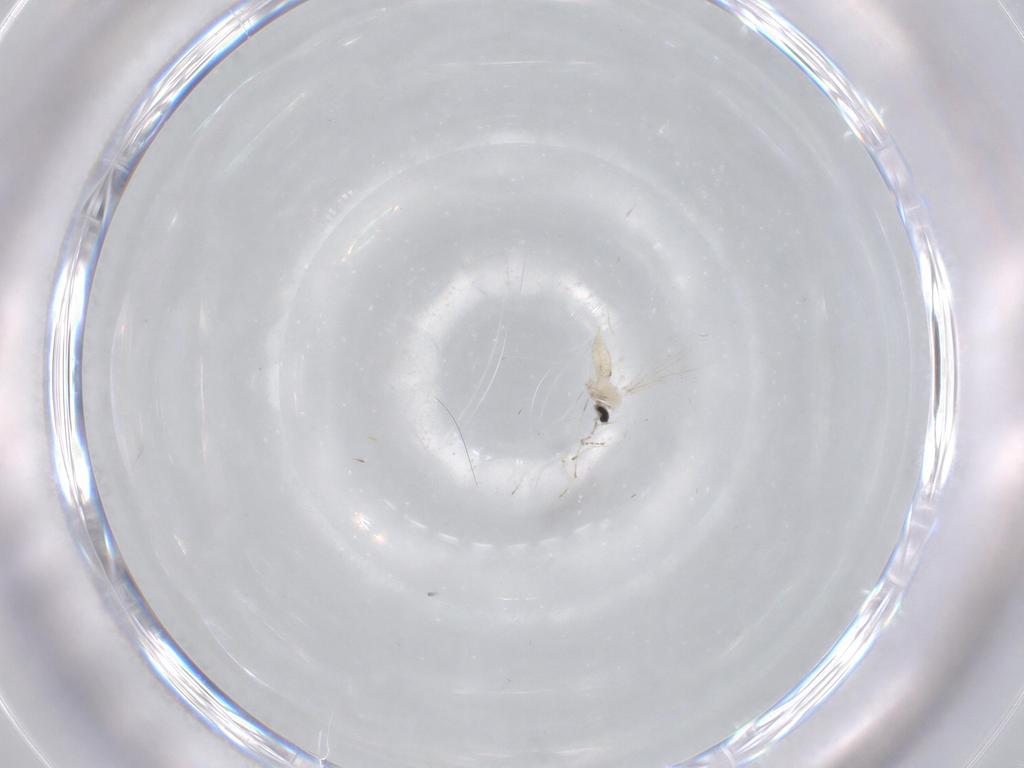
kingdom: Animalia
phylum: Arthropoda
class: Insecta
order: Diptera
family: Cecidomyiidae
